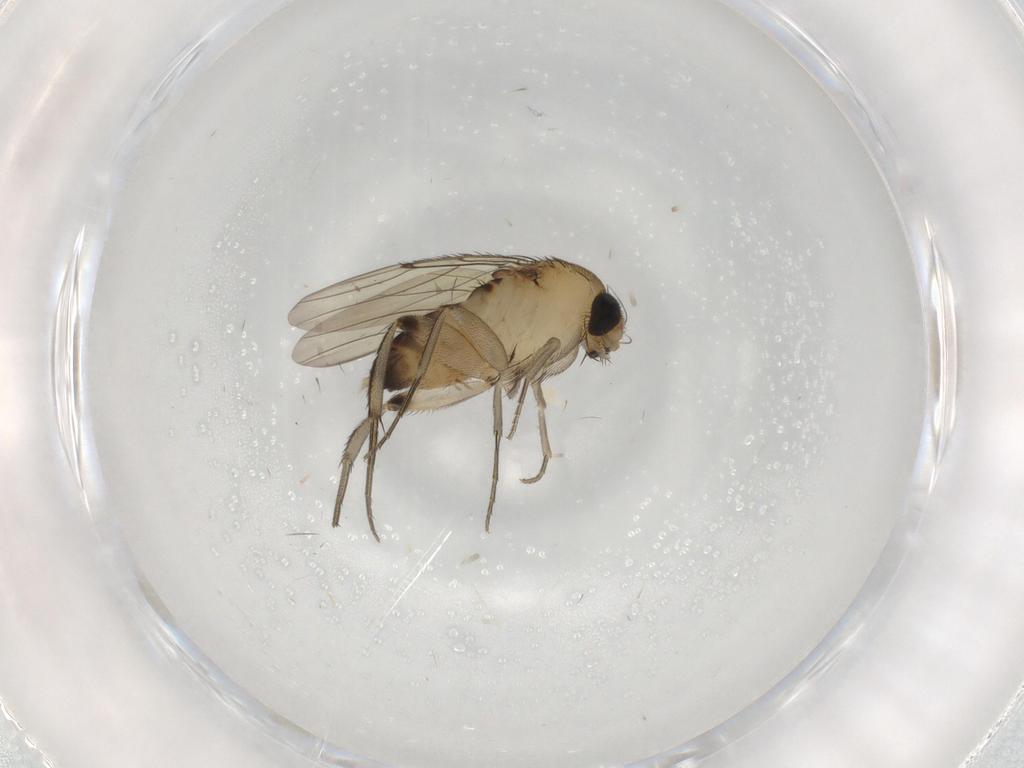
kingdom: Animalia
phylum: Arthropoda
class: Insecta
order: Diptera
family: Phoridae
